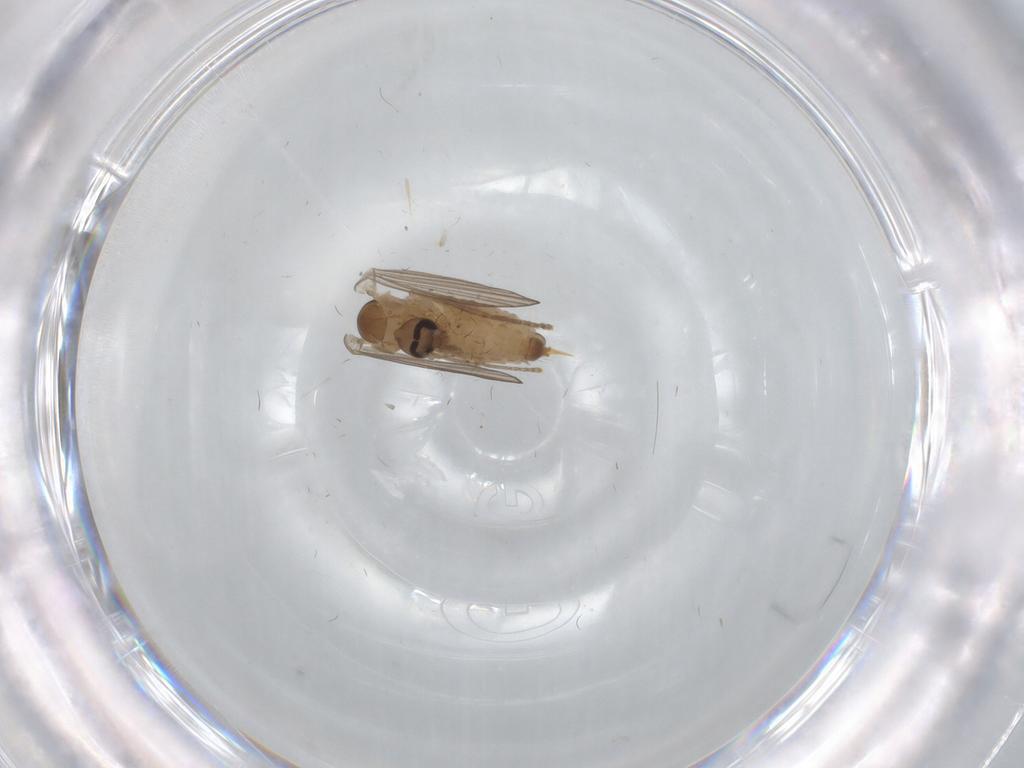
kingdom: Animalia
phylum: Arthropoda
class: Insecta
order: Diptera
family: Psychodidae
